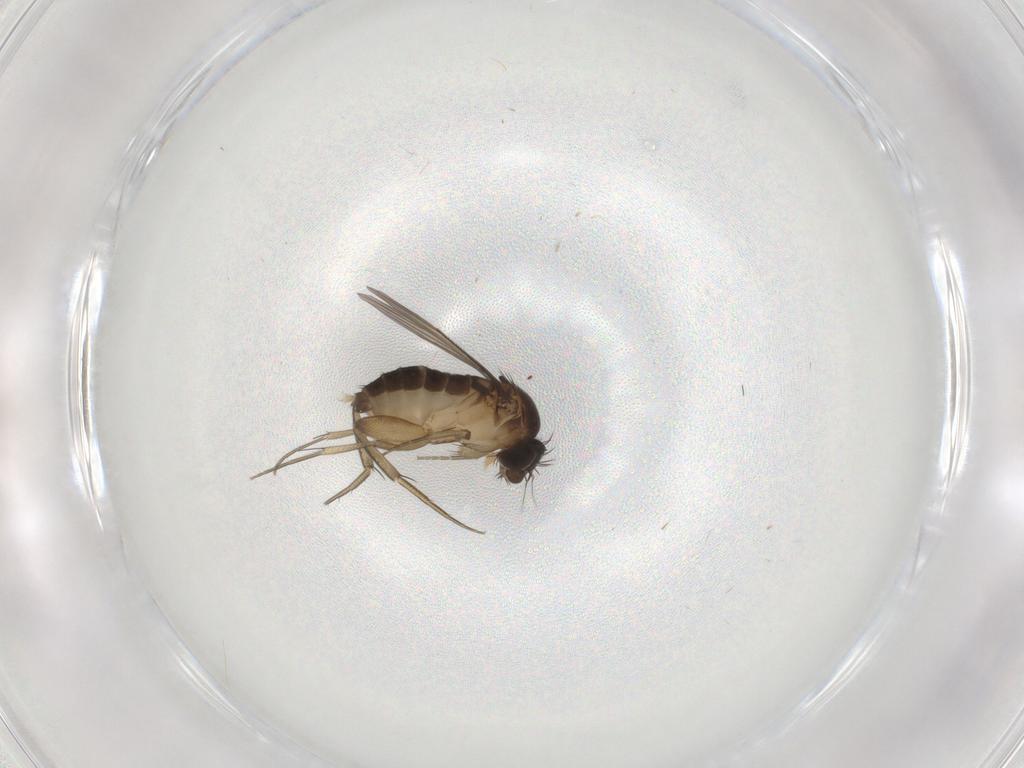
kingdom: Animalia
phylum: Arthropoda
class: Insecta
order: Diptera
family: Phoridae
